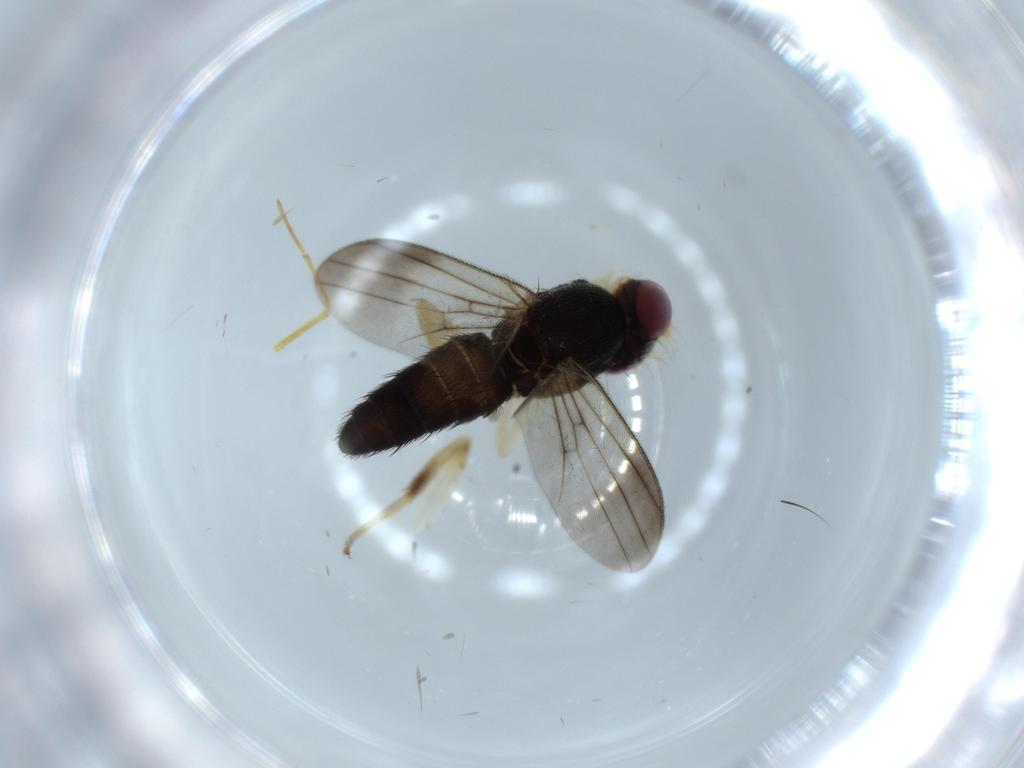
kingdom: Animalia
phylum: Arthropoda
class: Insecta
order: Diptera
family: Clusiidae
